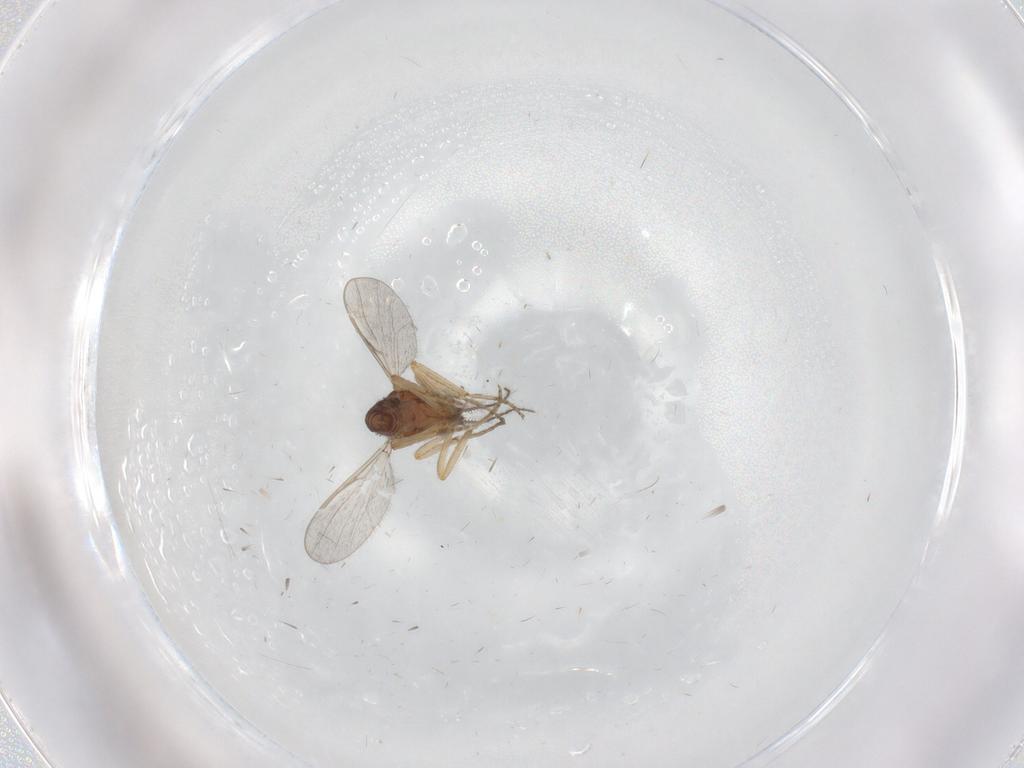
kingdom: Animalia
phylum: Arthropoda
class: Insecta
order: Diptera
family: Ceratopogonidae
